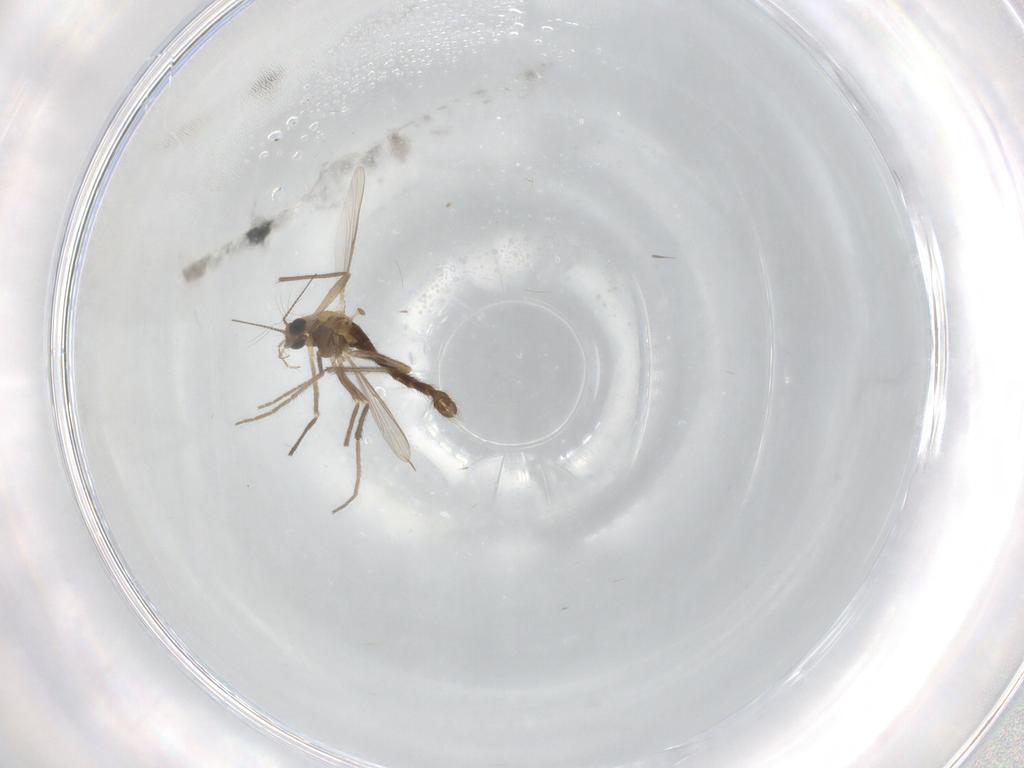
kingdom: Animalia
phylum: Arthropoda
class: Insecta
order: Diptera
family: Chironomidae
